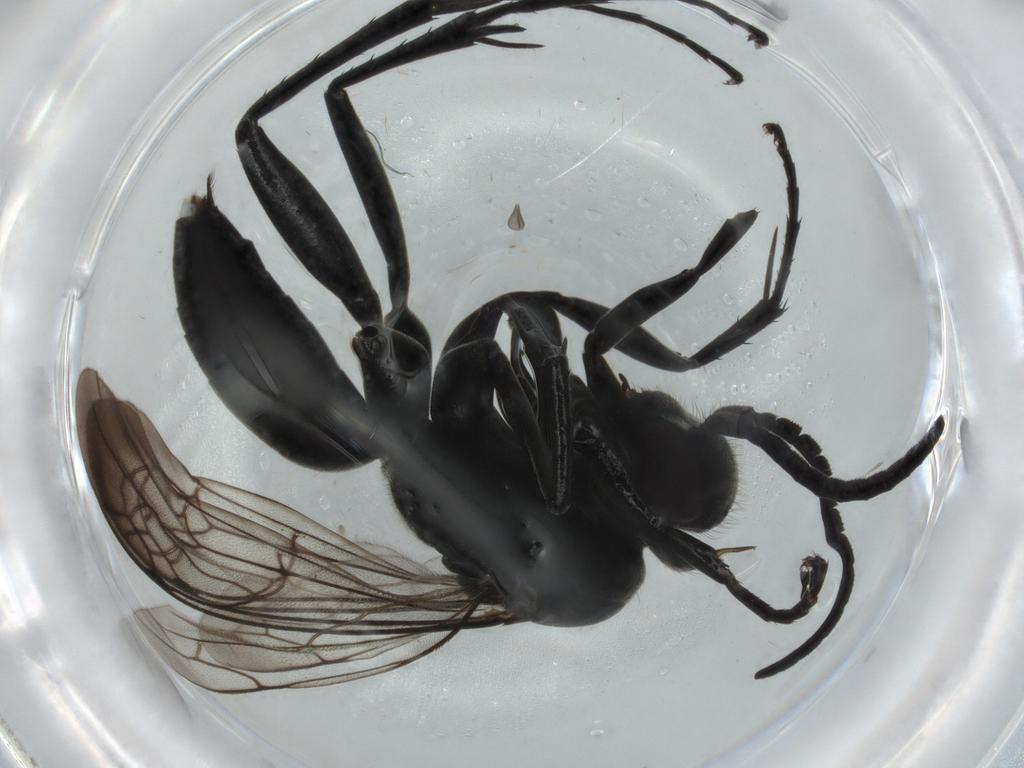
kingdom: Animalia
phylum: Arthropoda
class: Insecta
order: Hymenoptera
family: Pompilidae
